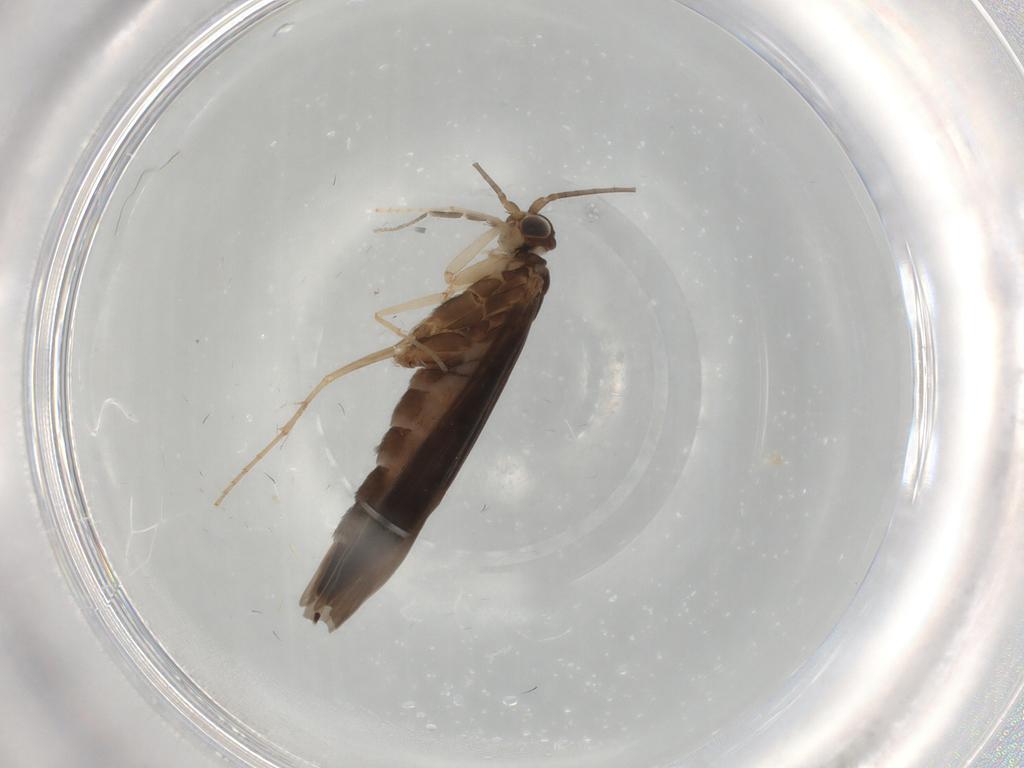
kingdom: Animalia
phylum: Arthropoda
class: Insecta
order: Trichoptera
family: Xiphocentronidae
